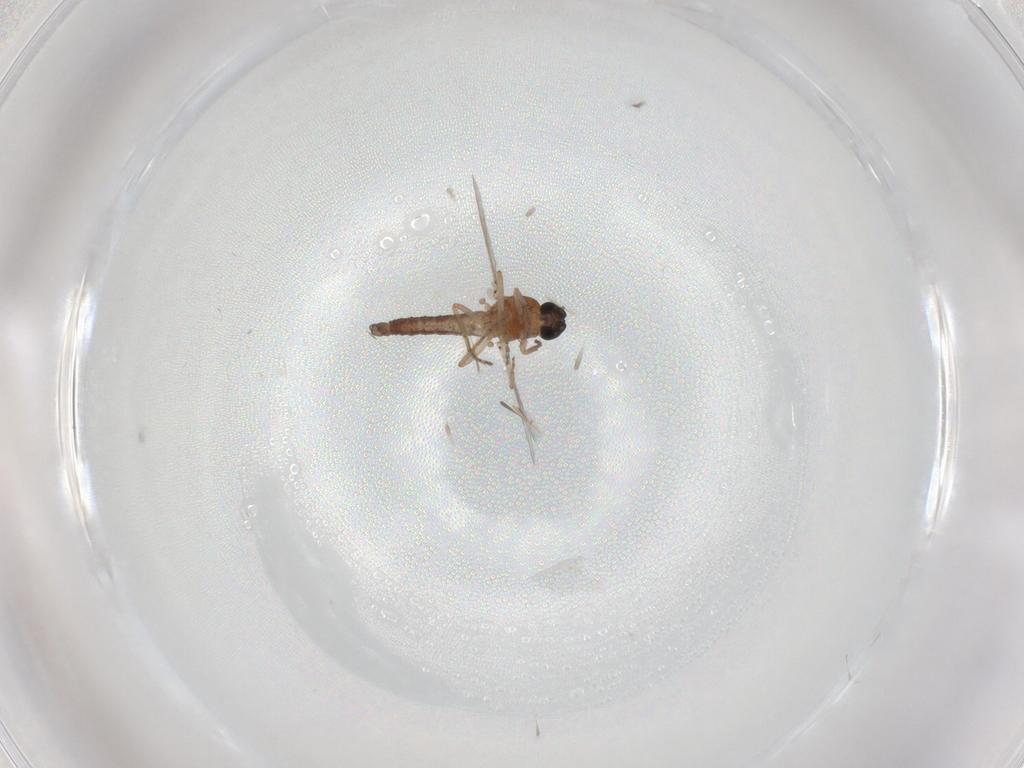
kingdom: Animalia
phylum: Arthropoda
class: Insecta
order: Diptera
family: Ceratopogonidae
